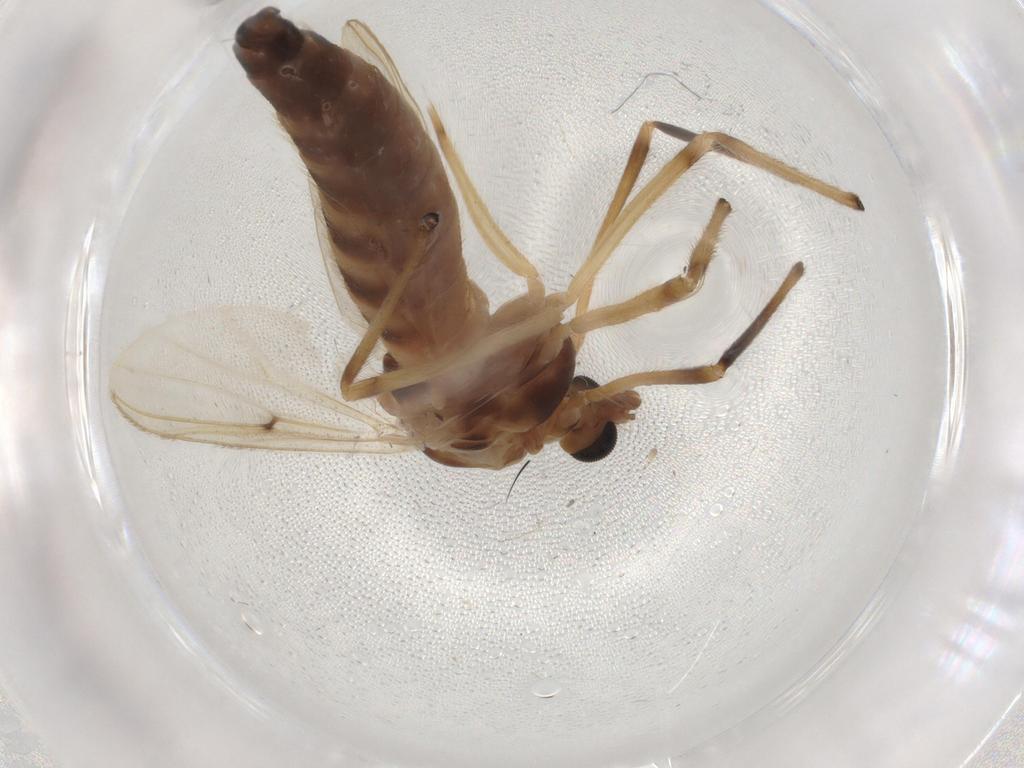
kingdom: Animalia
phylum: Arthropoda
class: Insecta
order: Diptera
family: Chironomidae
